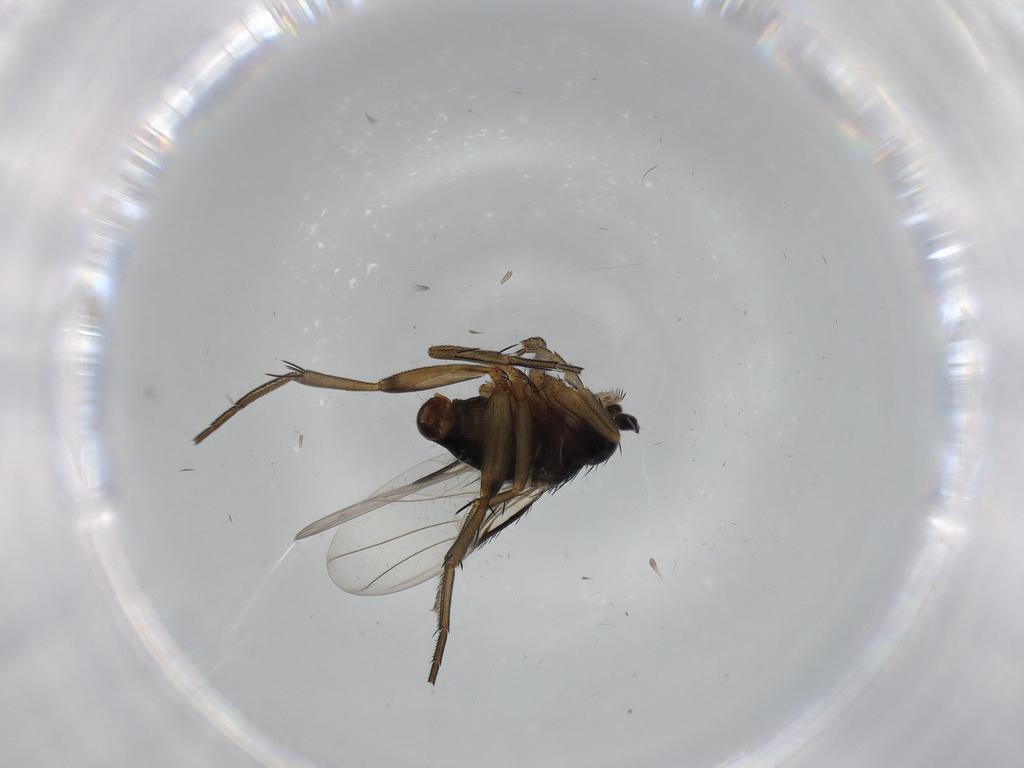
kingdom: Animalia
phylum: Arthropoda
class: Insecta
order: Diptera
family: Phoridae
